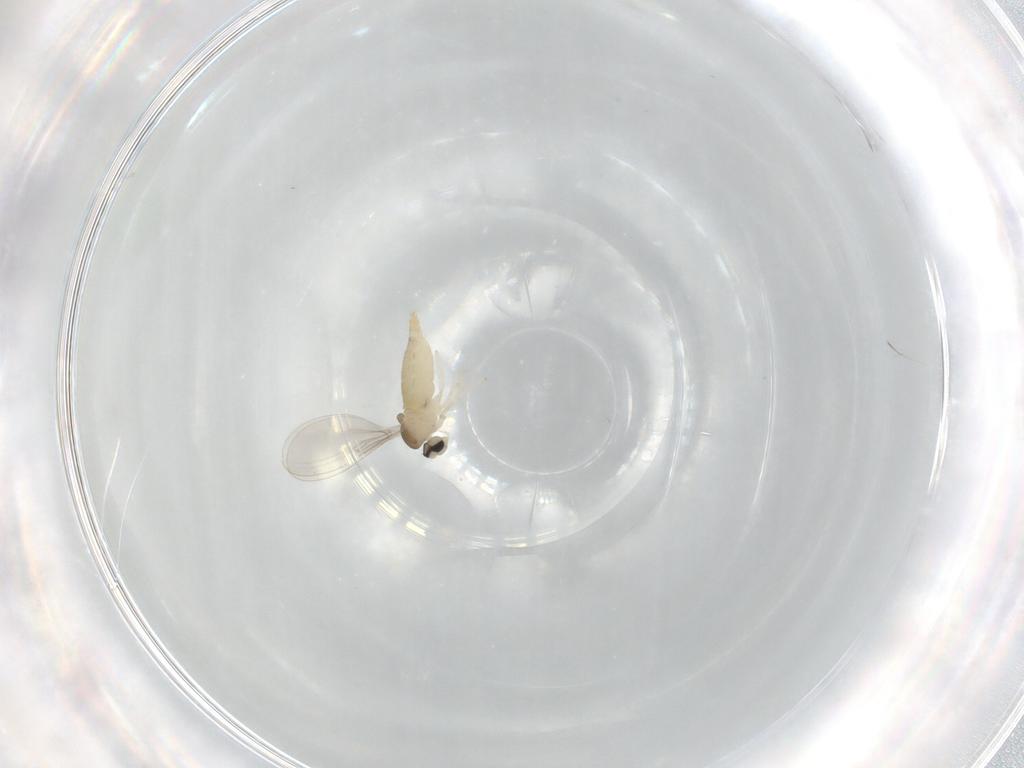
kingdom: Animalia
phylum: Arthropoda
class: Insecta
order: Diptera
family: Cecidomyiidae
